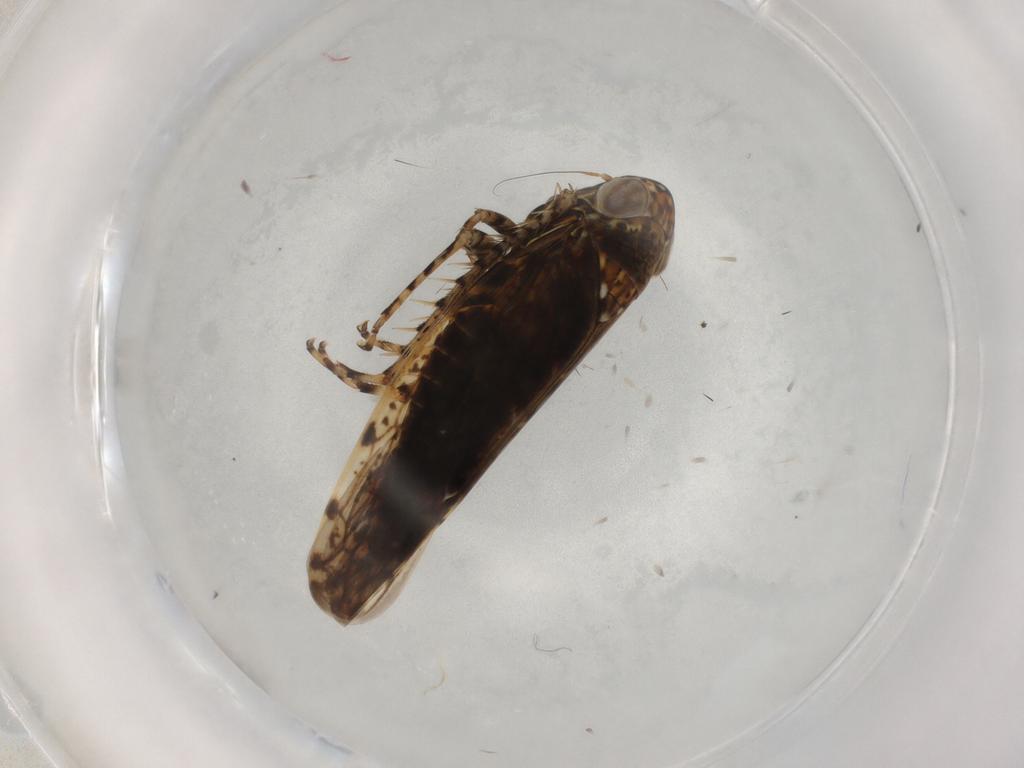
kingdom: Animalia
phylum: Arthropoda
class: Insecta
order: Hemiptera
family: Cicadellidae
